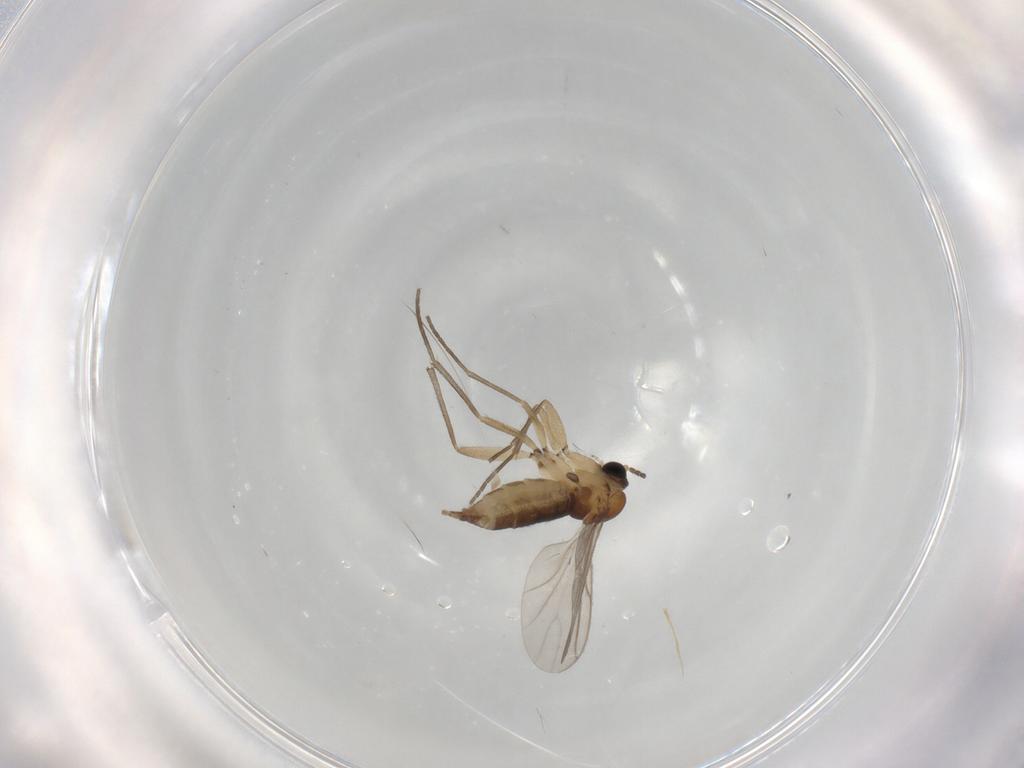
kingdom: Animalia
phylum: Arthropoda
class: Insecta
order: Diptera
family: Sciaridae
